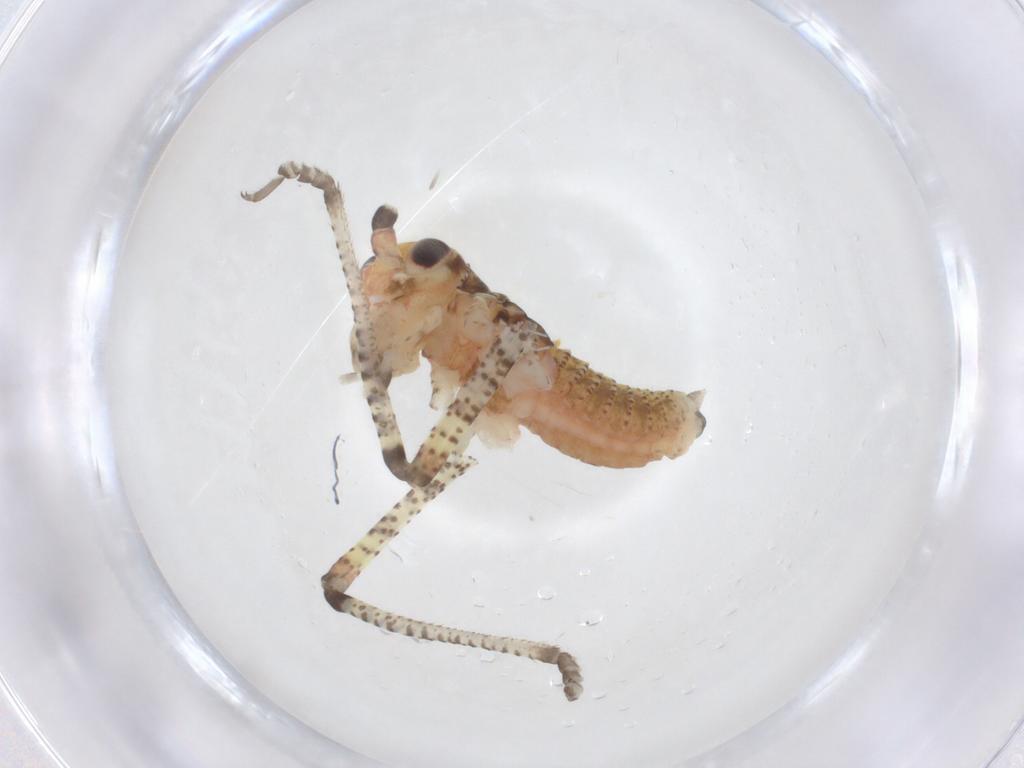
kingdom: Animalia
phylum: Arthropoda
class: Insecta
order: Orthoptera
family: Tettigoniidae
